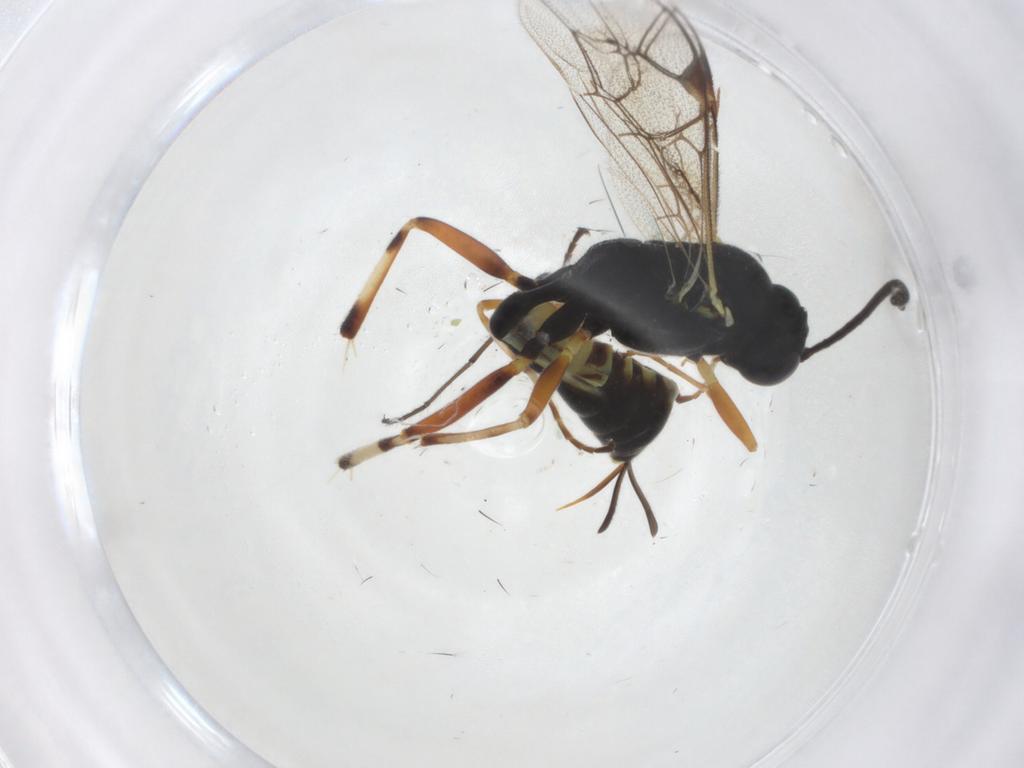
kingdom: Animalia
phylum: Arthropoda
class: Insecta
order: Hymenoptera
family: Ichneumonidae
